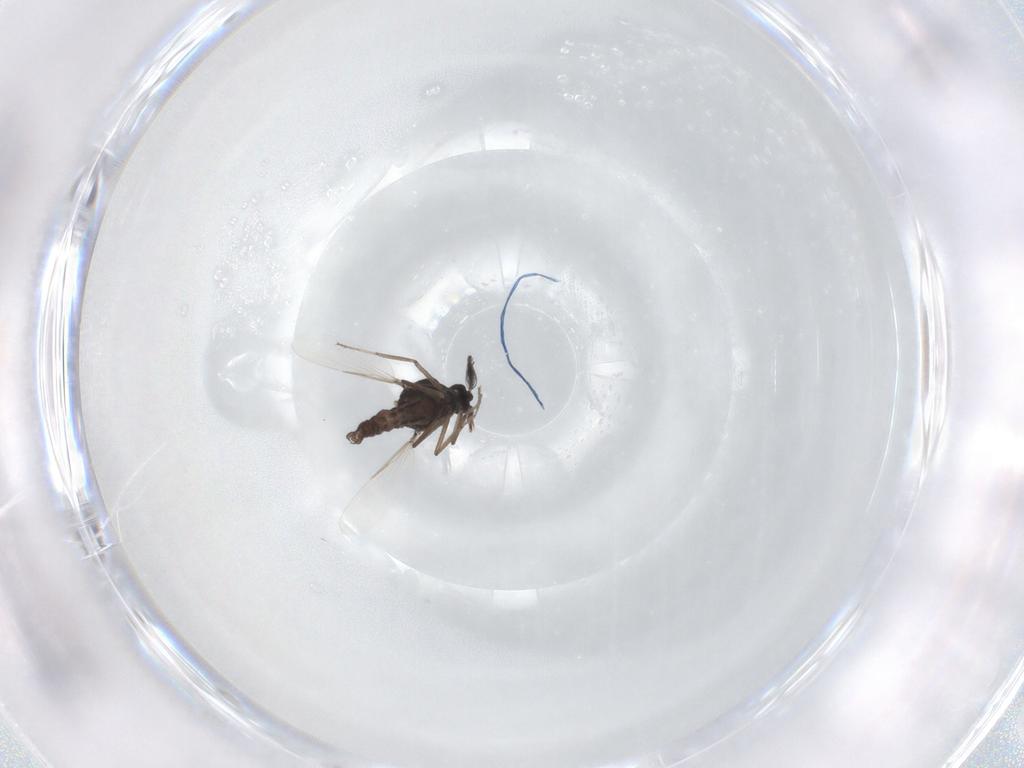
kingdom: Animalia
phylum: Arthropoda
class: Insecta
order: Diptera
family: Ceratopogonidae
